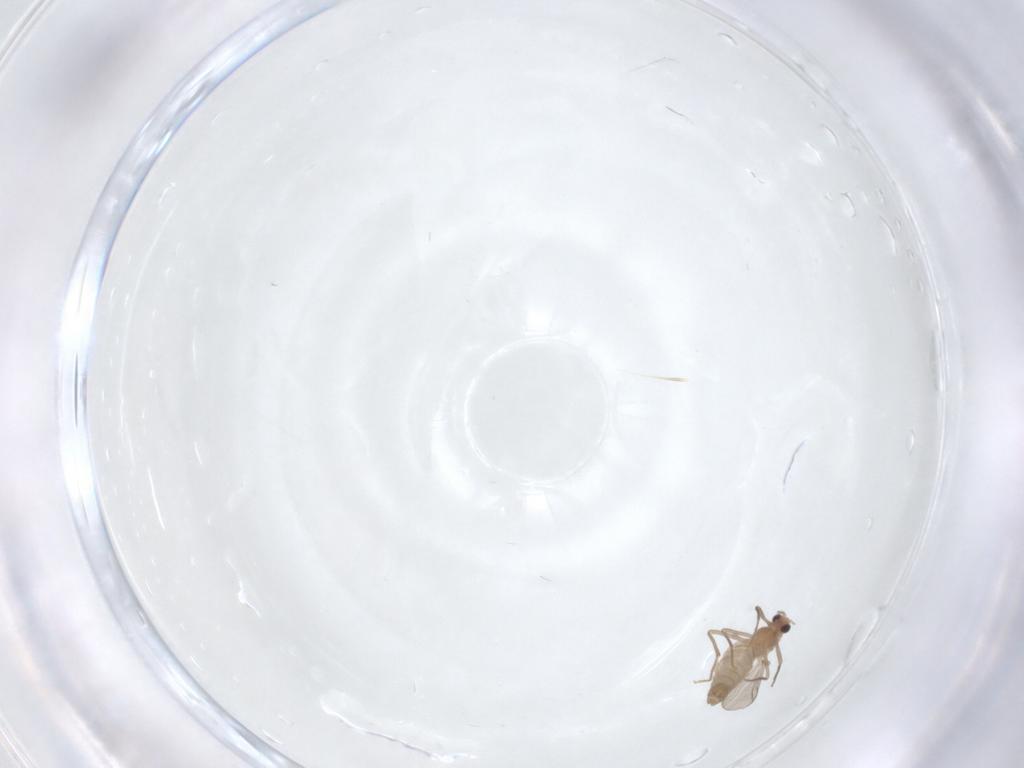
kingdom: Animalia
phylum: Arthropoda
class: Insecta
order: Diptera
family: Chironomidae
